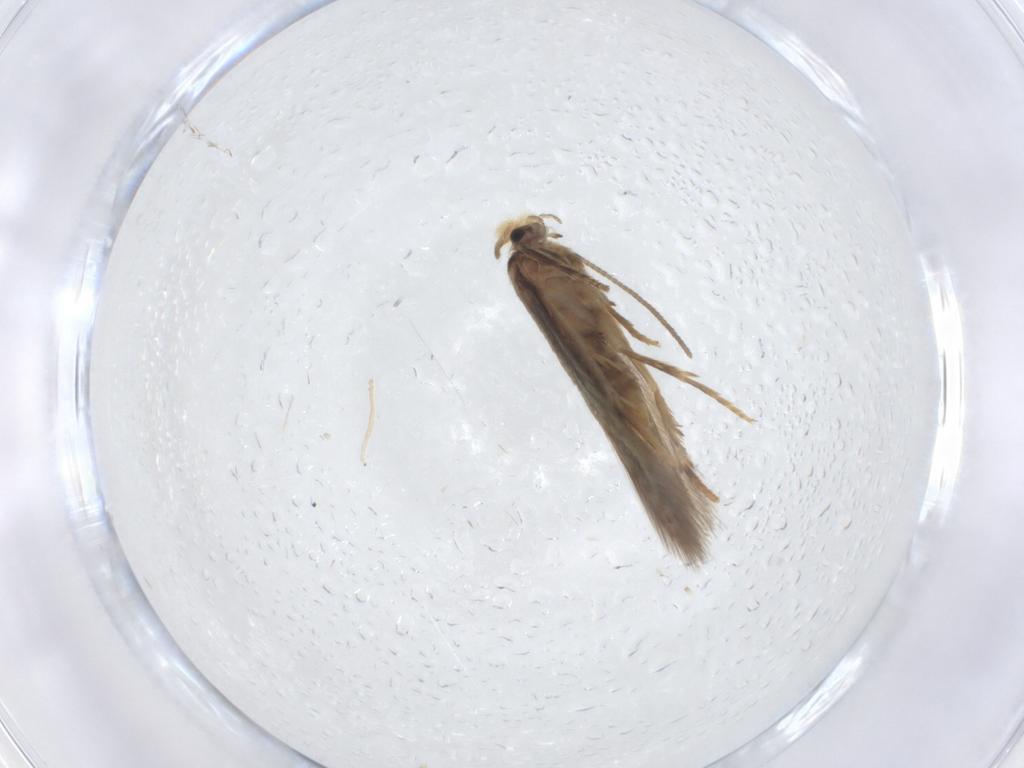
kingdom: Animalia
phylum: Arthropoda
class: Insecta
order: Lepidoptera
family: Nepticulidae
